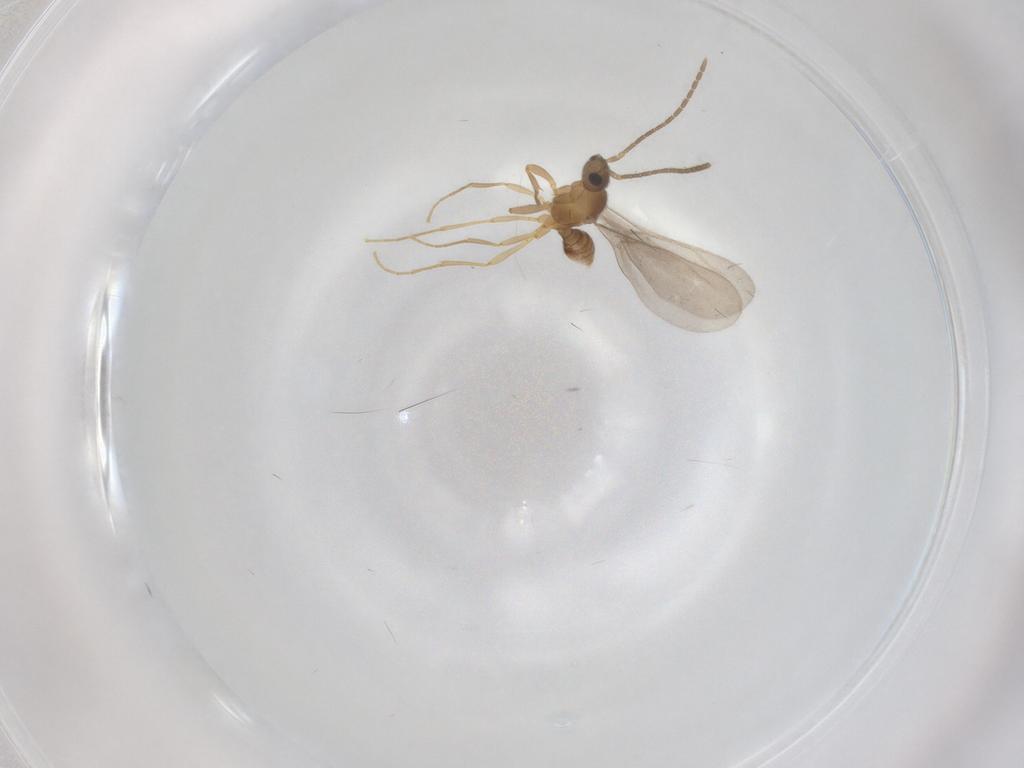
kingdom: Animalia
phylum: Arthropoda
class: Insecta
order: Hymenoptera
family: Formicidae
